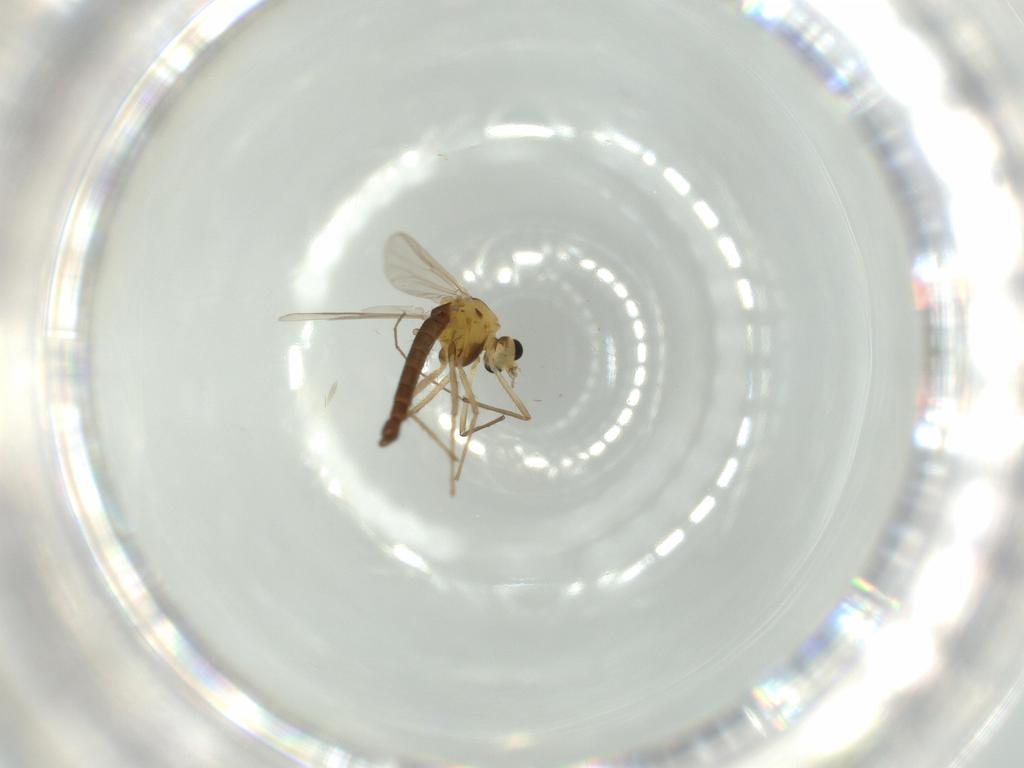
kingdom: Animalia
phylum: Arthropoda
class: Insecta
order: Diptera
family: Chironomidae
